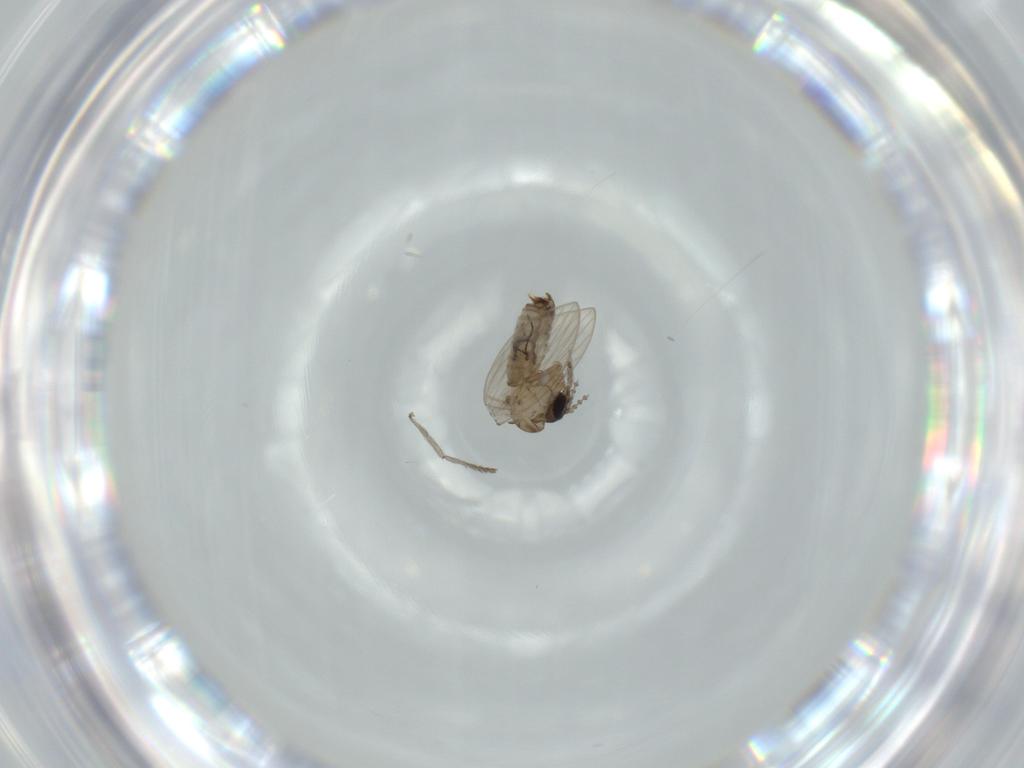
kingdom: Animalia
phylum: Arthropoda
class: Insecta
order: Diptera
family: Psychodidae
